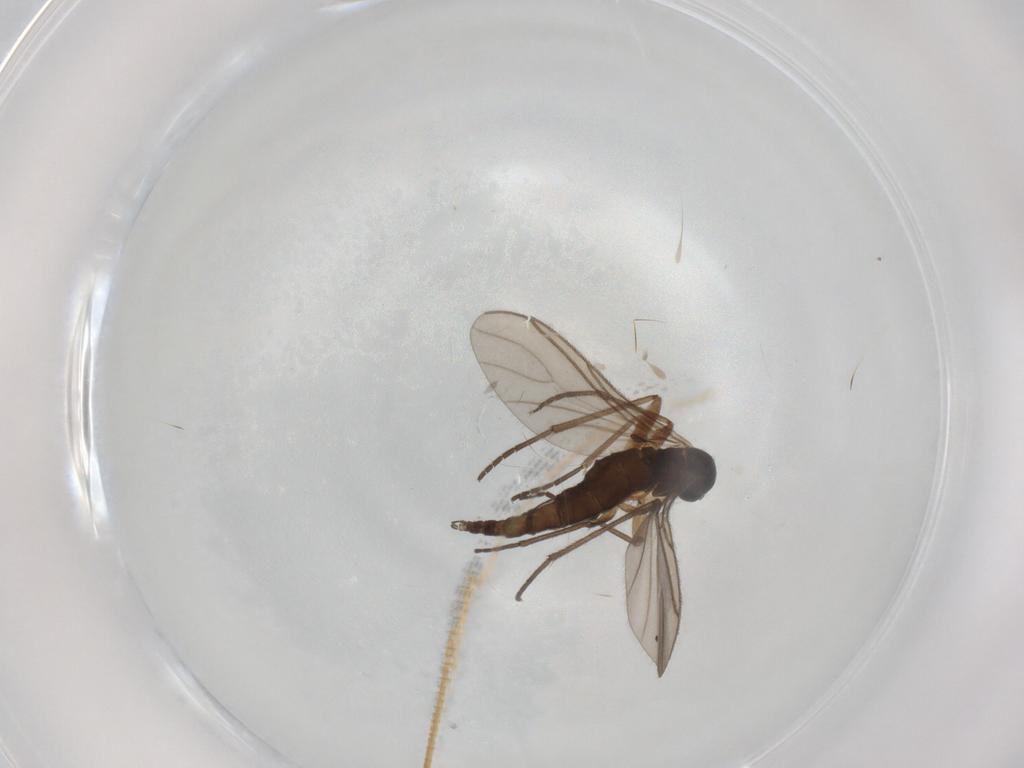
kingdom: Animalia
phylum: Arthropoda
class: Insecta
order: Diptera
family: Sciaridae
